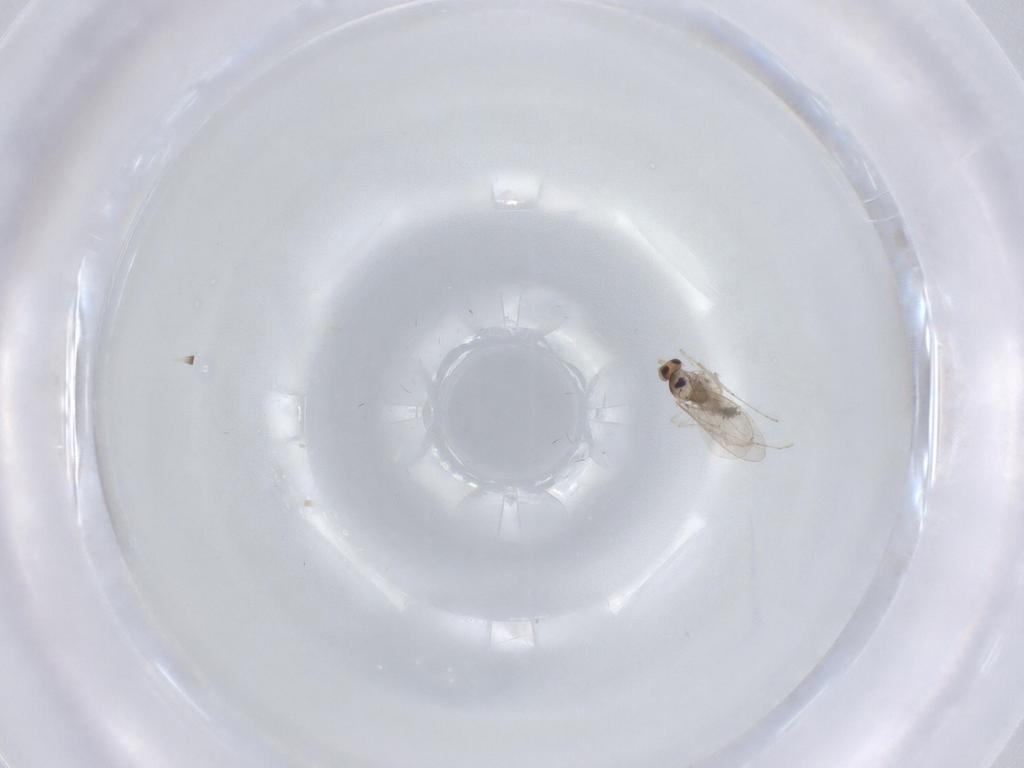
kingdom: Animalia
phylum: Arthropoda
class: Insecta
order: Diptera
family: Cecidomyiidae
